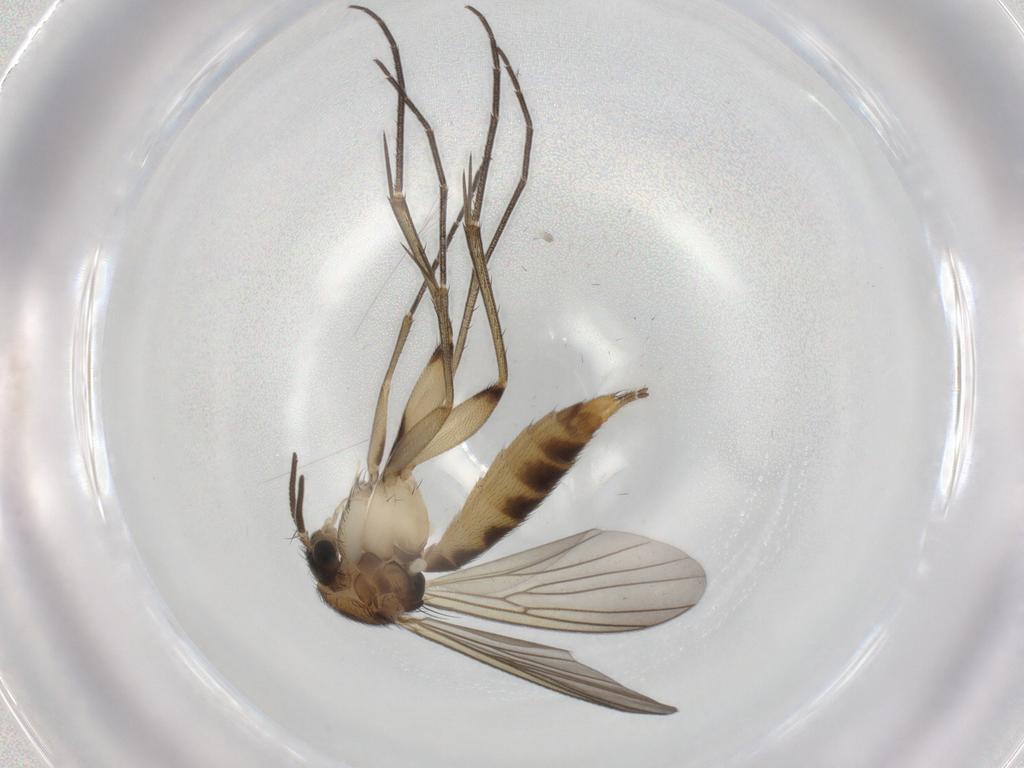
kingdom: Animalia
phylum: Arthropoda
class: Insecta
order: Diptera
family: Mycetophilidae
